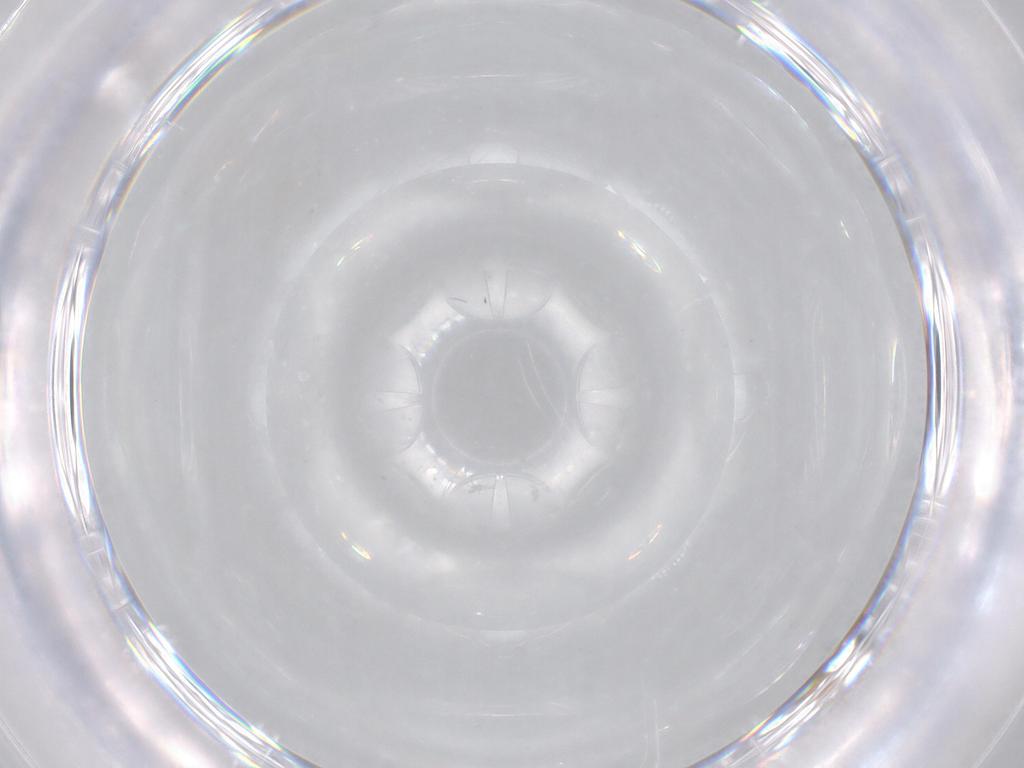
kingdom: Animalia
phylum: Arthropoda
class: Insecta
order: Diptera
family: Cecidomyiidae
